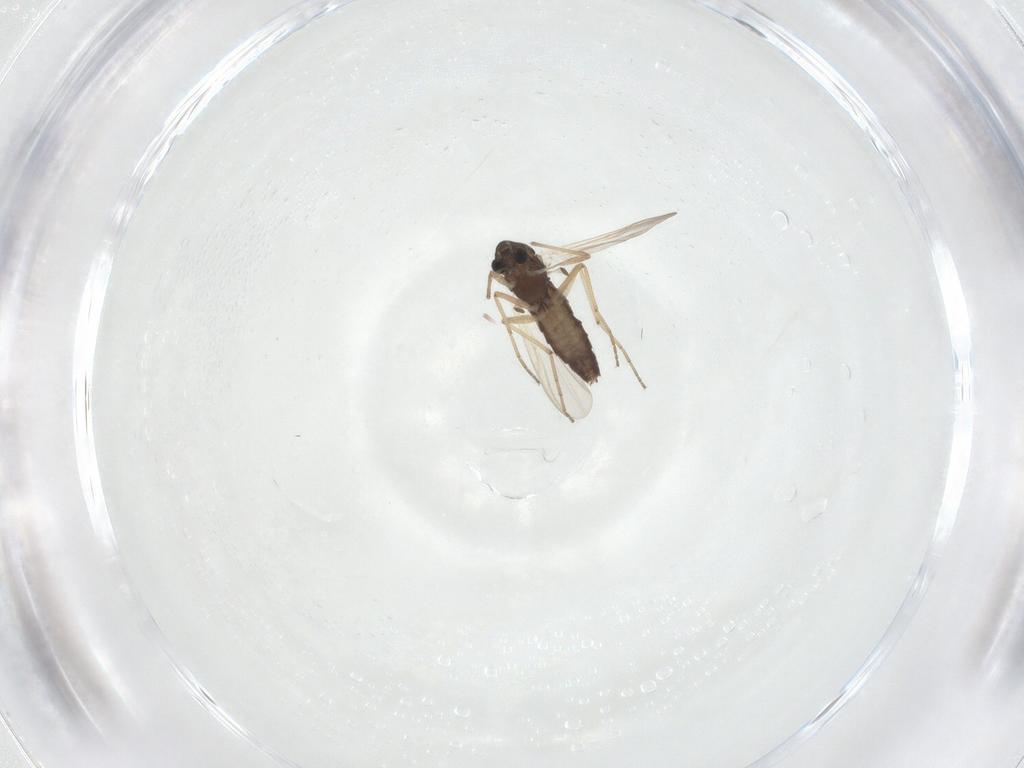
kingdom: Animalia
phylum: Arthropoda
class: Insecta
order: Diptera
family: Chironomidae
